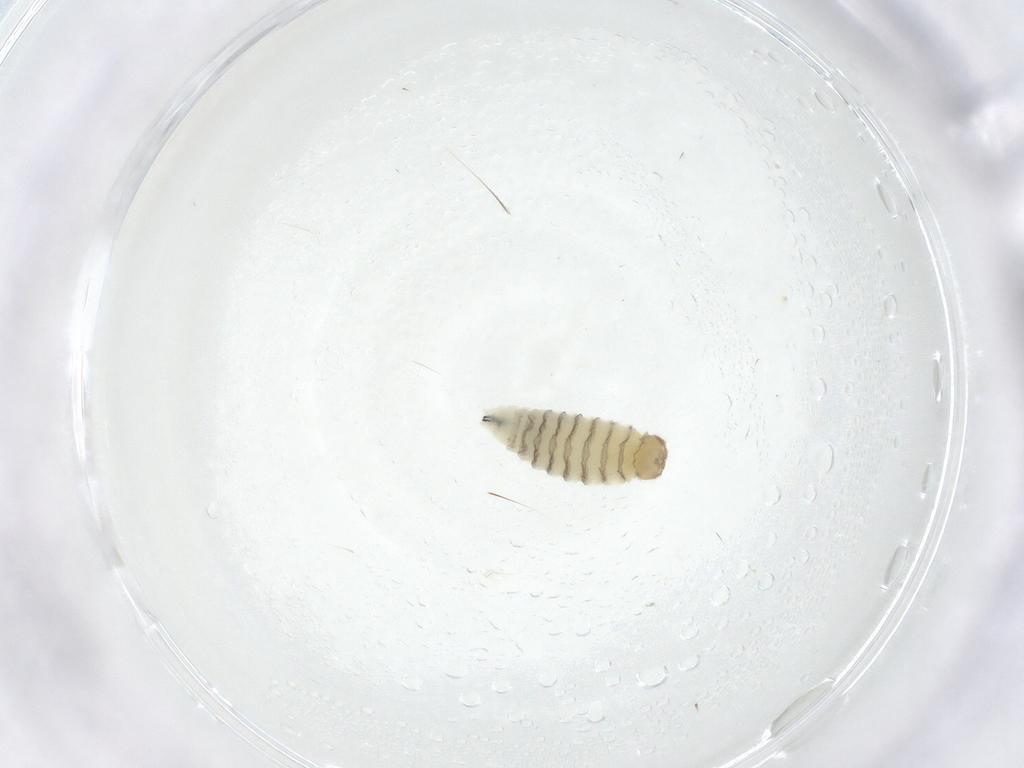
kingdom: Animalia
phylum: Arthropoda
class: Insecta
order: Diptera
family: Sarcophagidae
